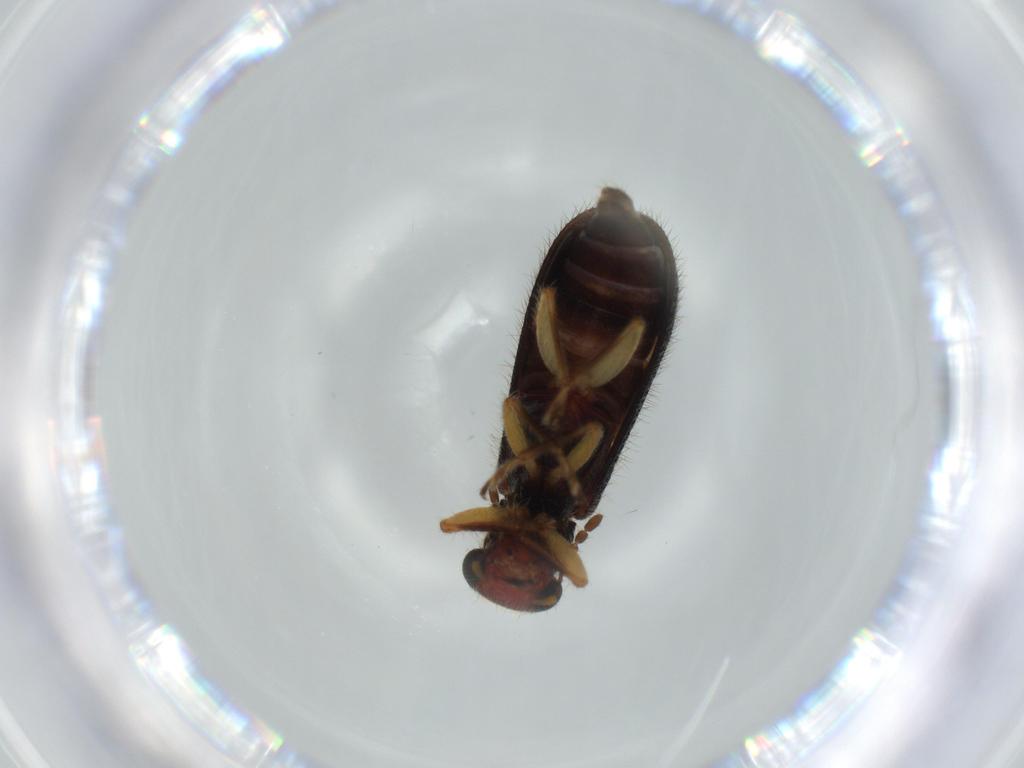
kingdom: Animalia
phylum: Arthropoda
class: Insecta
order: Coleoptera
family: Cleridae
